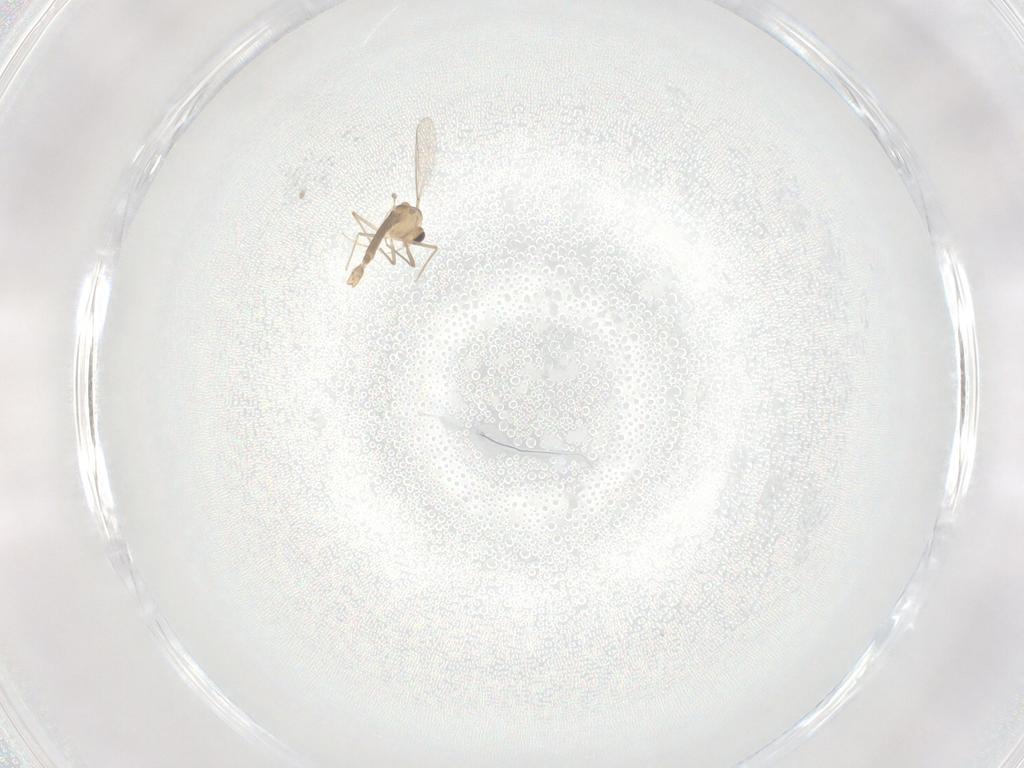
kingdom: Animalia
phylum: Arthropoda
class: Insecta
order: Diptera
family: Chironomidae
